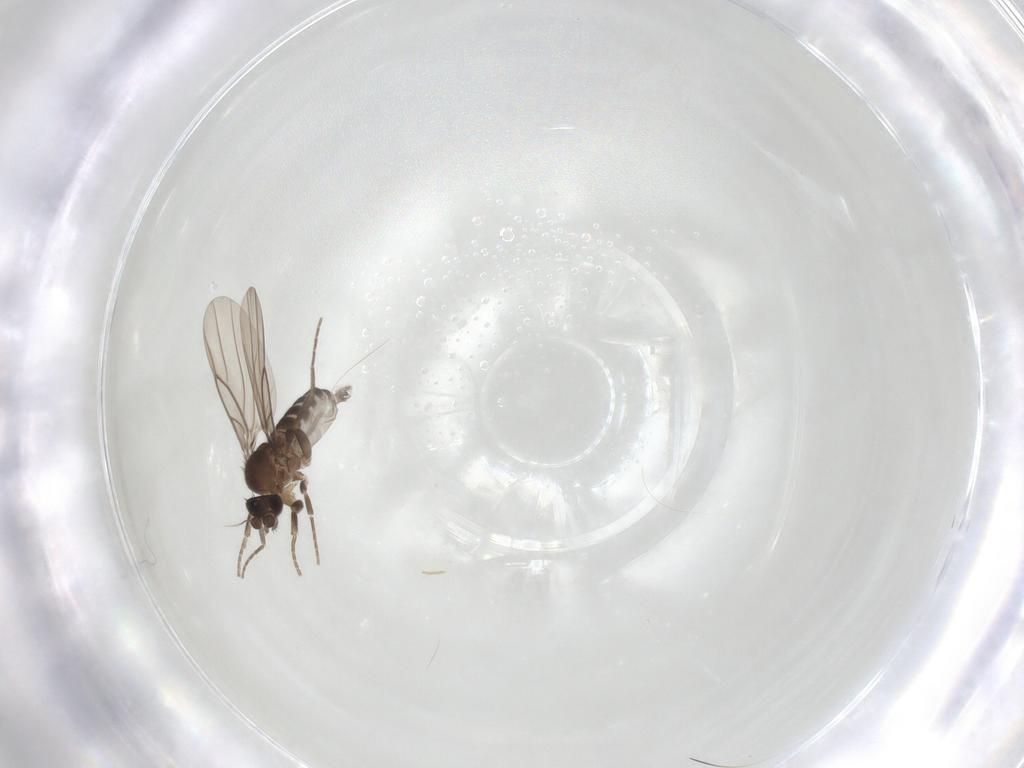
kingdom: Animalia
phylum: Arthropoda
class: Insecta
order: Diptera
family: Phoridae
